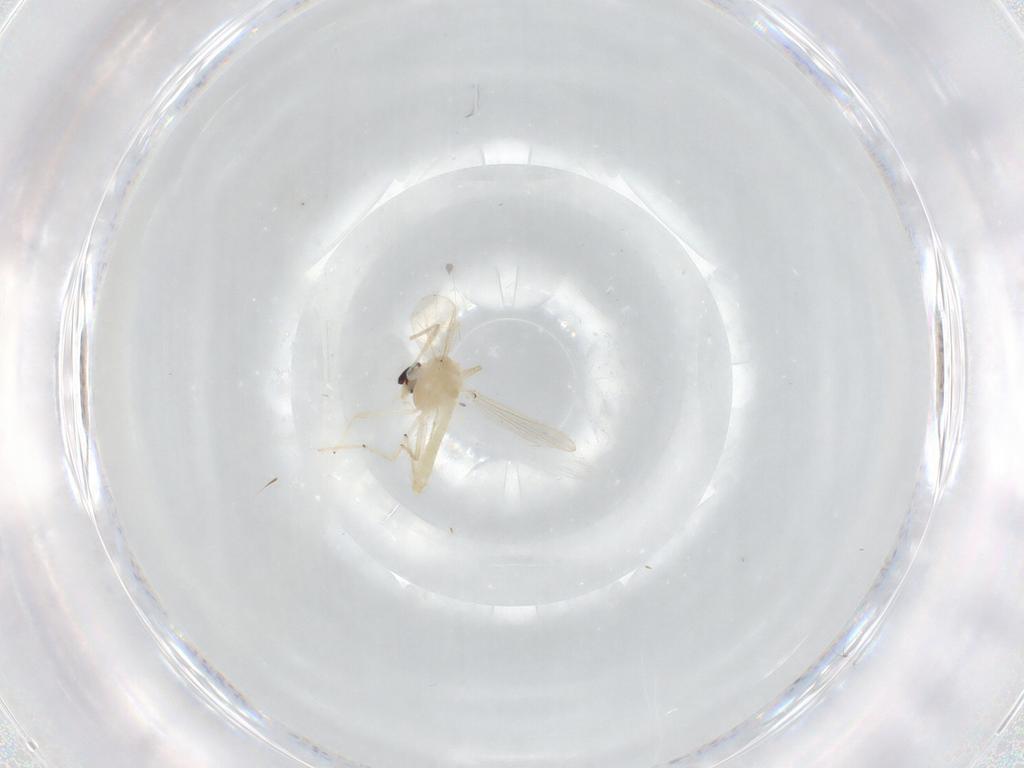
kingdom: Animalia
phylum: Arthropoda
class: Insecta
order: Diptera
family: Chironomidae
